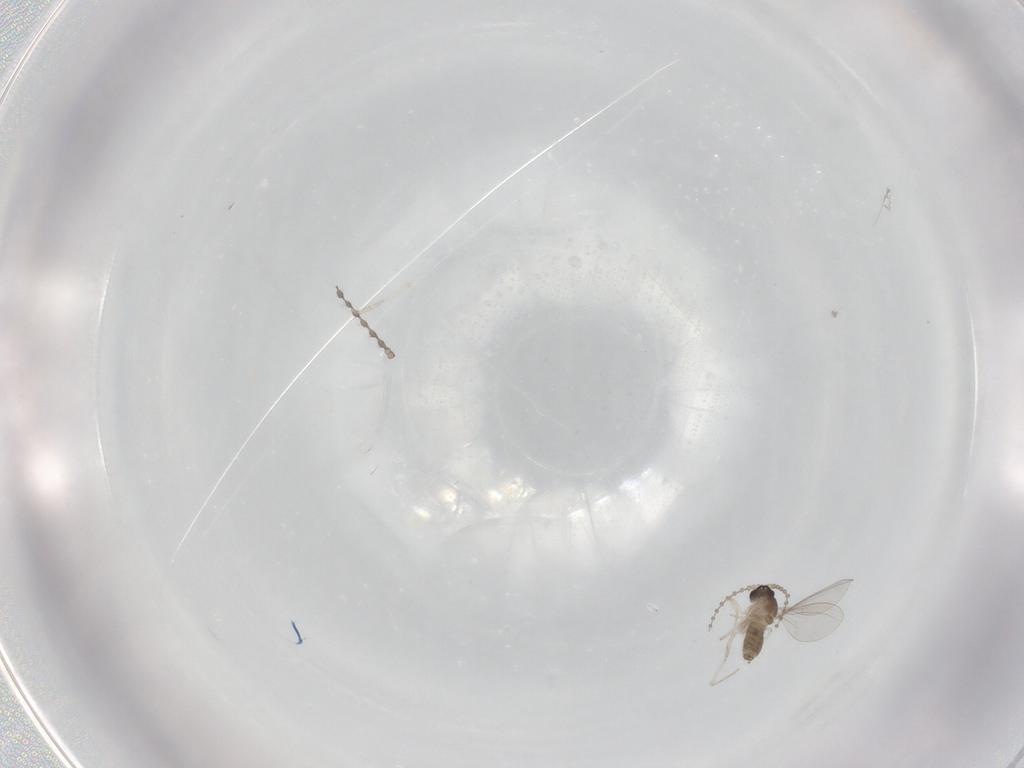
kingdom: Animalia
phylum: Arthropoda
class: Insecta
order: Diptera
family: Cecidomyiidae
